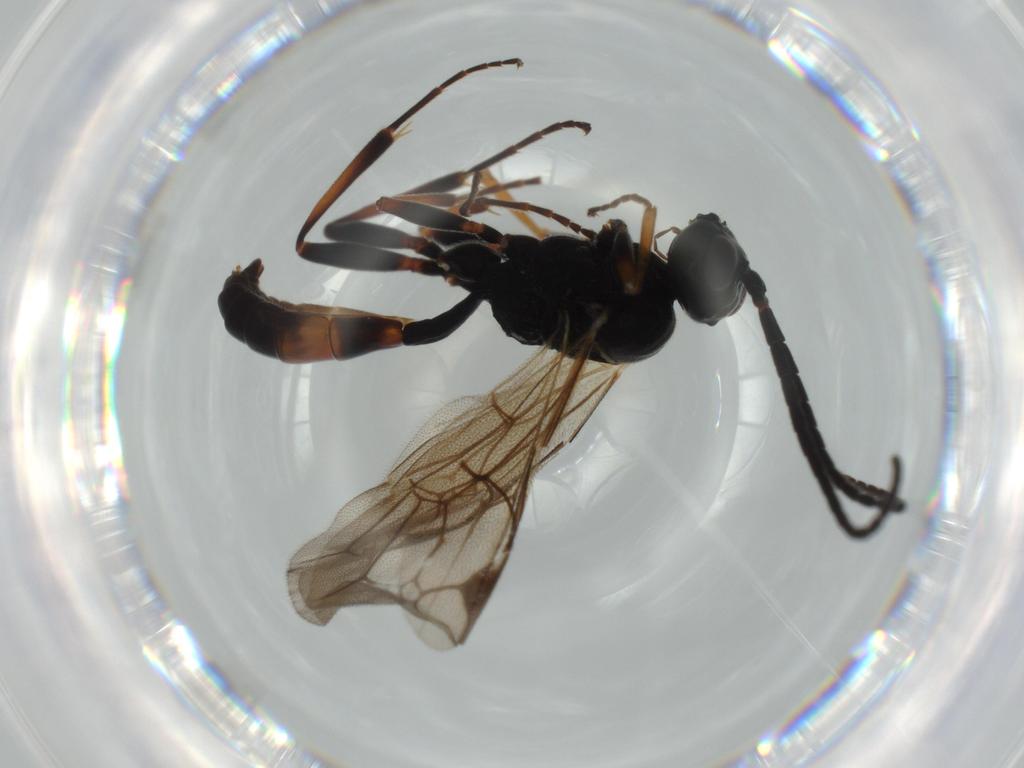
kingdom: Animalia
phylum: Arthropoda
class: Insecta
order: Hymenoptera
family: Ichneumonidae
